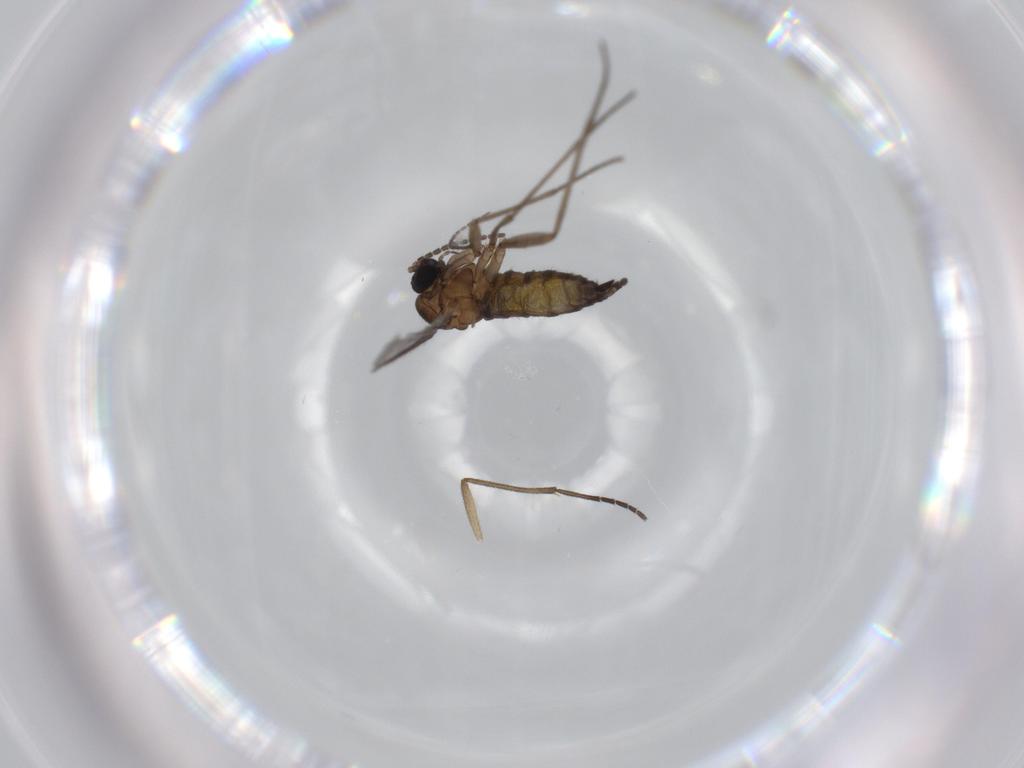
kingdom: Animalia
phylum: Arthropoda
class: Insecta
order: Diptera
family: Sciaridae
